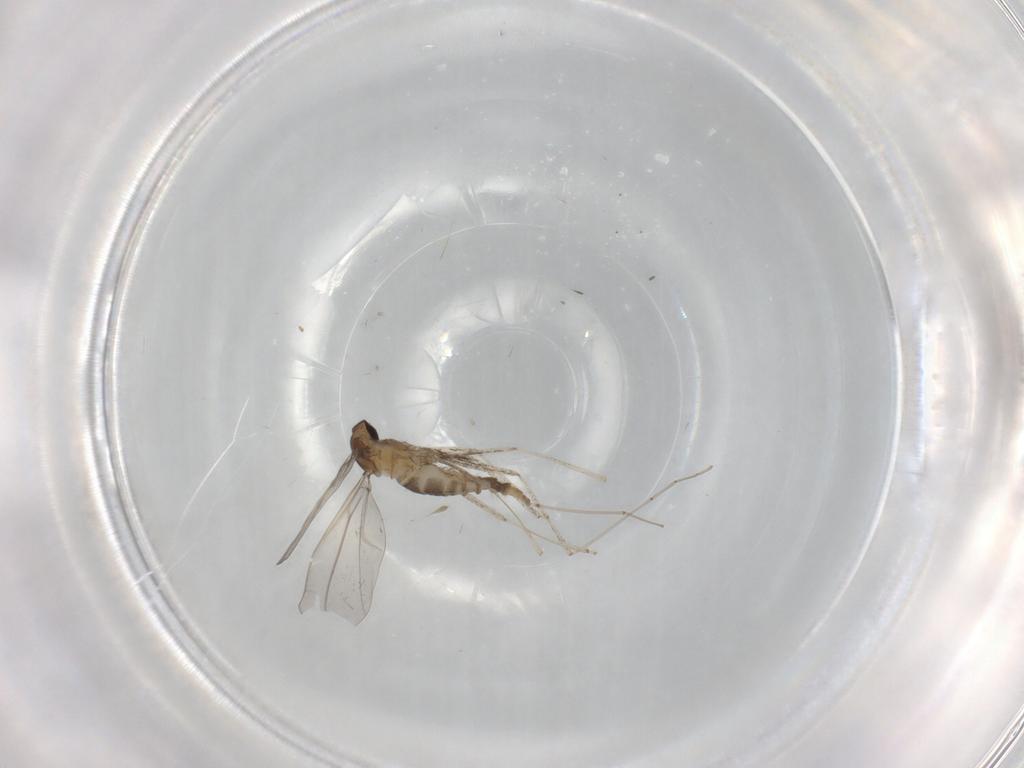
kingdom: Animalia
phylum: Arthropoda
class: Insecta
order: Diptera
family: Cecidomyiidae
